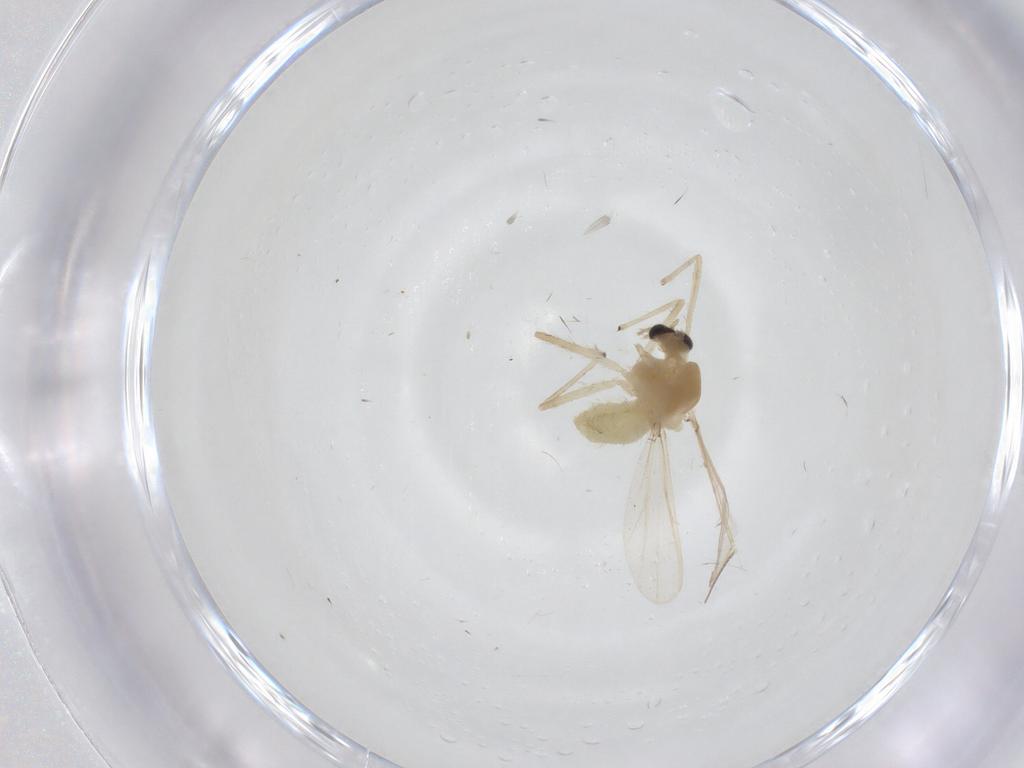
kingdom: Animalia
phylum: Arthropoda
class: Insecta
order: Diptera
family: Chironomidae
